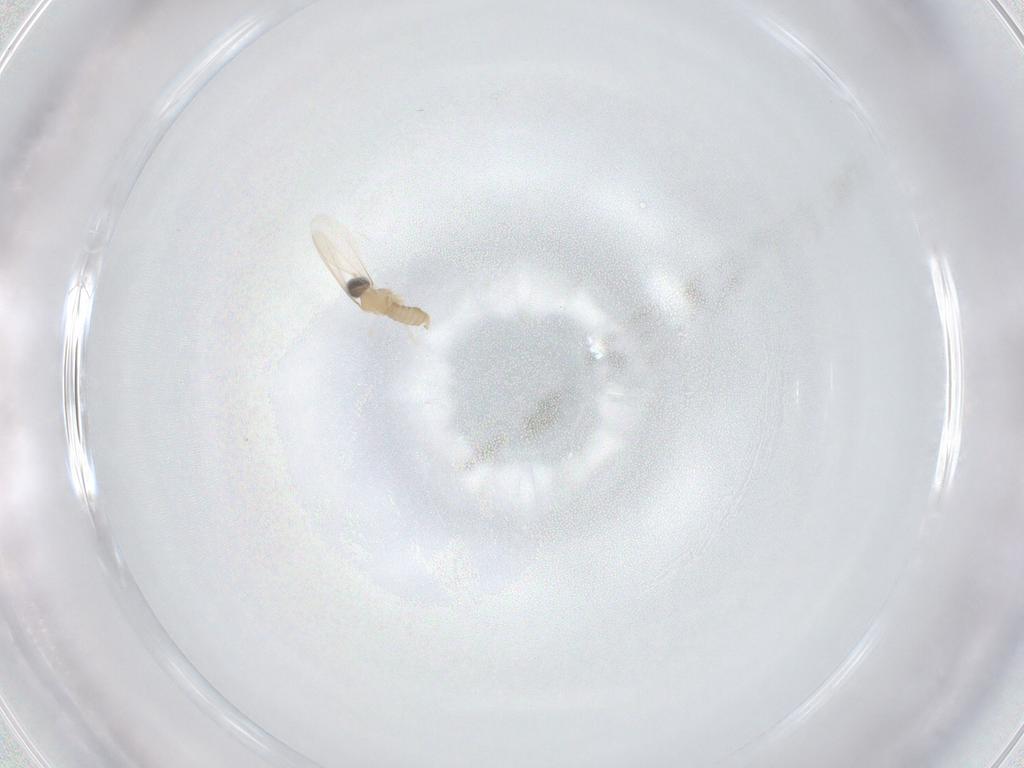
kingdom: Animalia
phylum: Arthropoda
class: Insecta
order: Diptera
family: Cecidomyiidae
